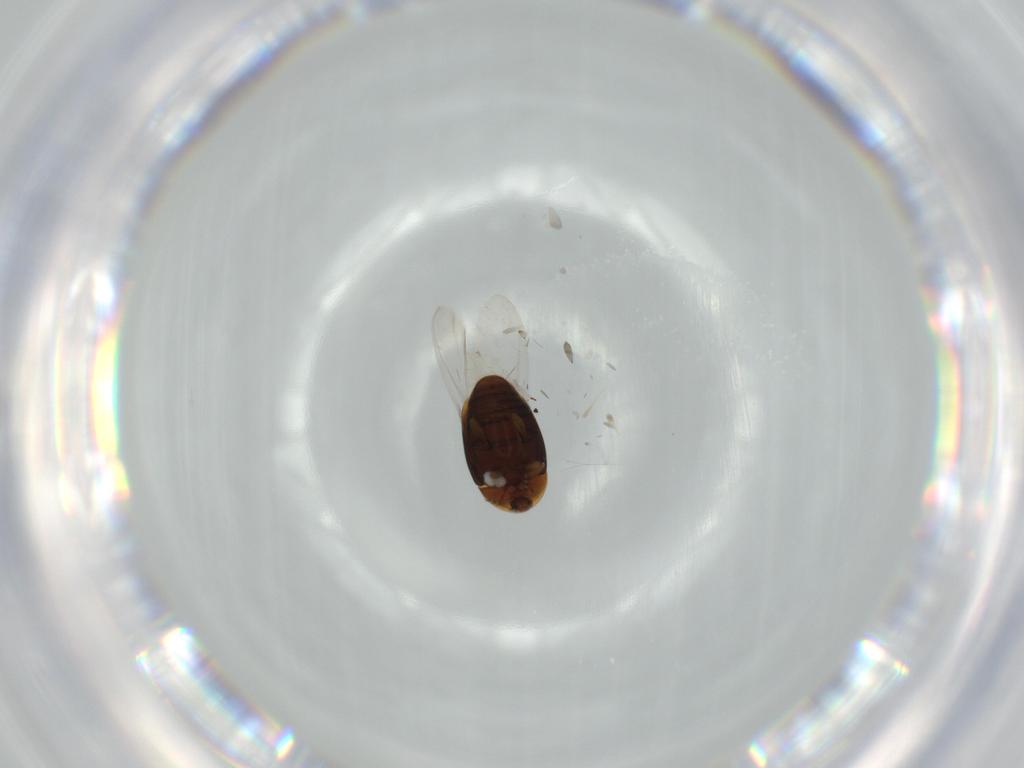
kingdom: Animalia
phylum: Arthropoda
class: Insecta
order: Coleoptera
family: Corylophidae
